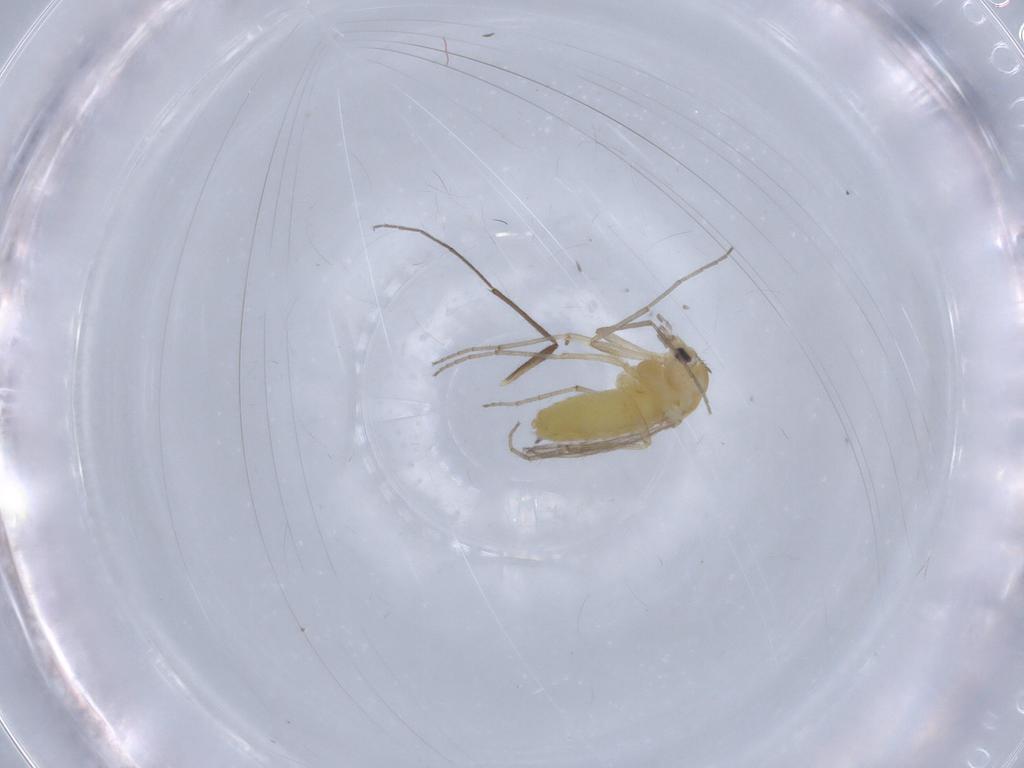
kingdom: Animalia
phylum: Arthropoda
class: Insecta
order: Diptera
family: Chironomidae
